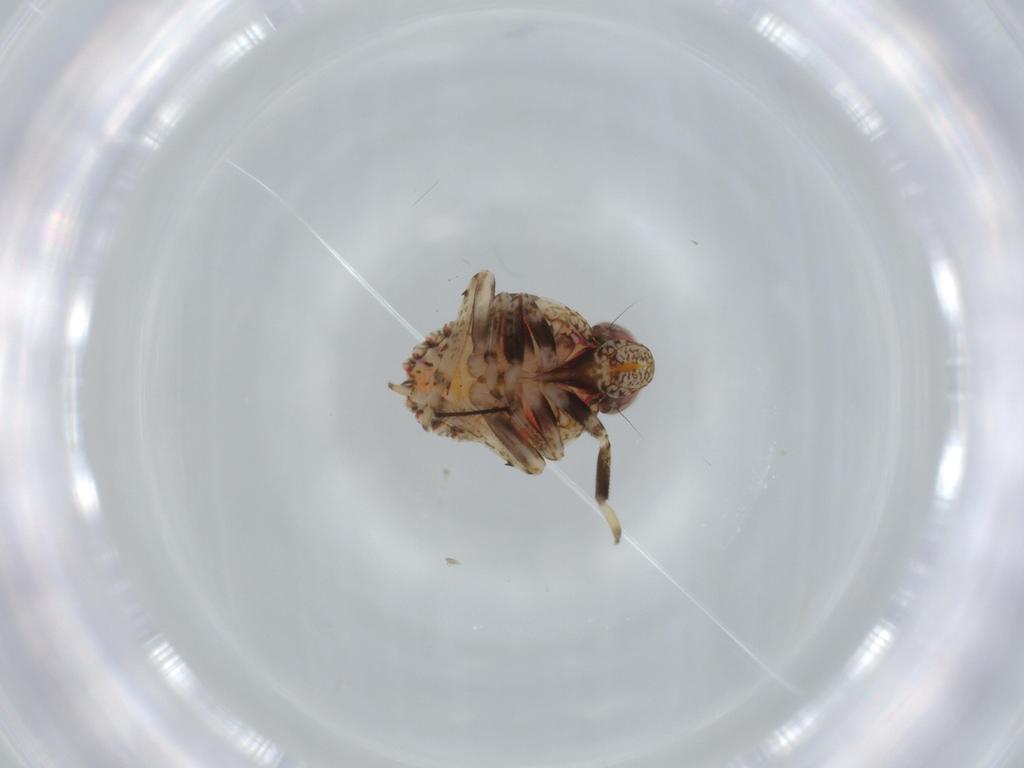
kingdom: Animalia
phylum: Arthropoda
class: Insecta
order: Hemiptera
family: Issidae
